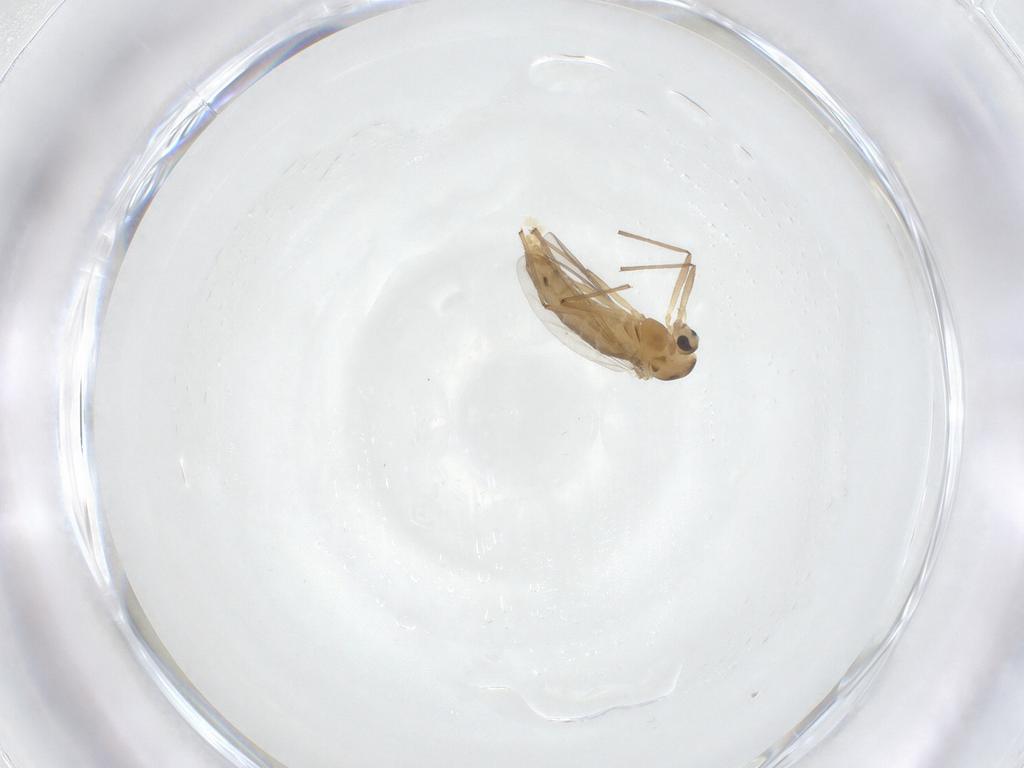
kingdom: Animalia
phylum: Arthropoda
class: Insecta
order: Diptera
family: Chironomidae
